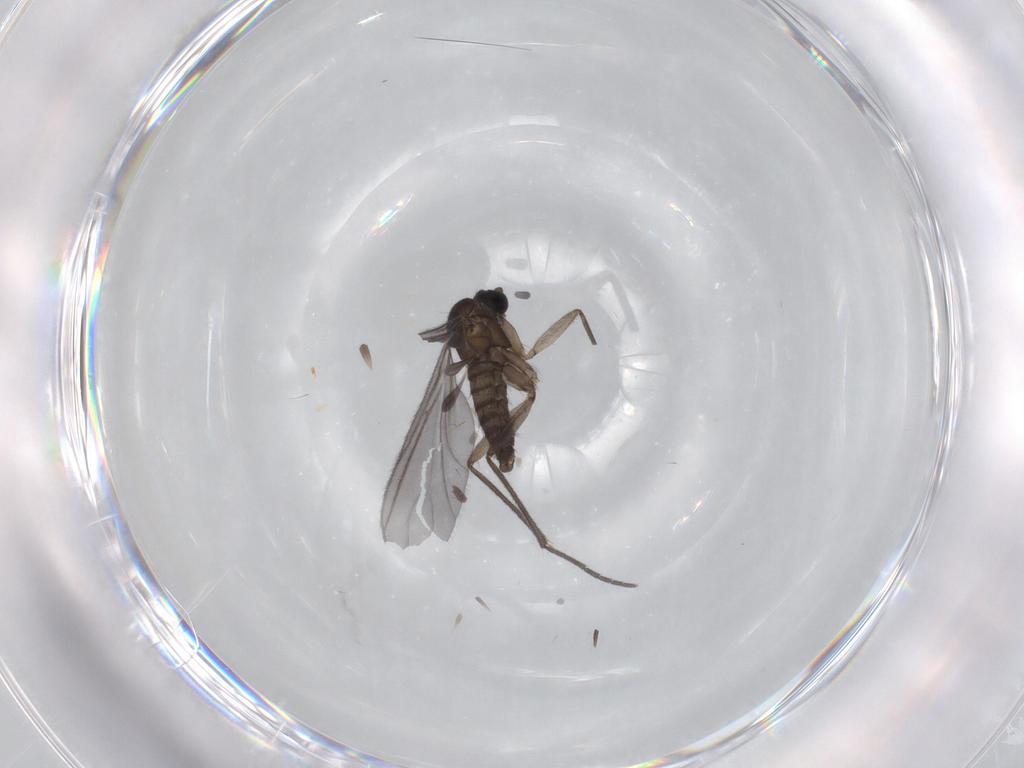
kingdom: Animalia
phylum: Arthropoda
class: Insecta
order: Diptera
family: Sciaridae
